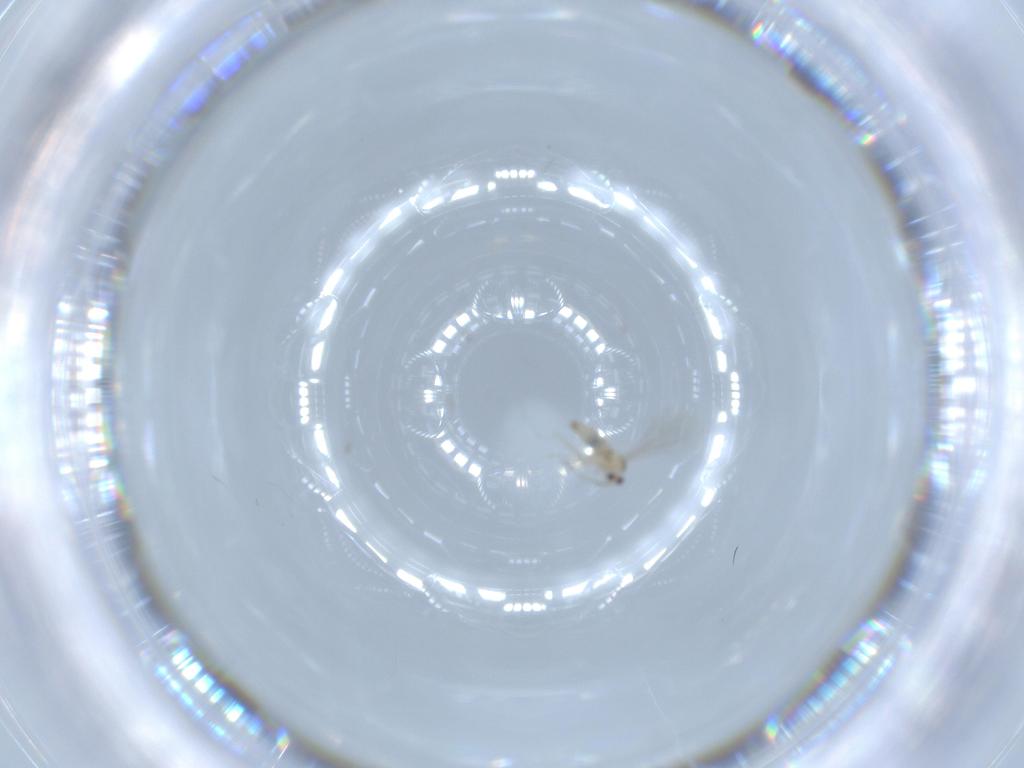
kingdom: Animalia
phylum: Arthropoda
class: Insecta
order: Diptera
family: Cecidomyiidae
